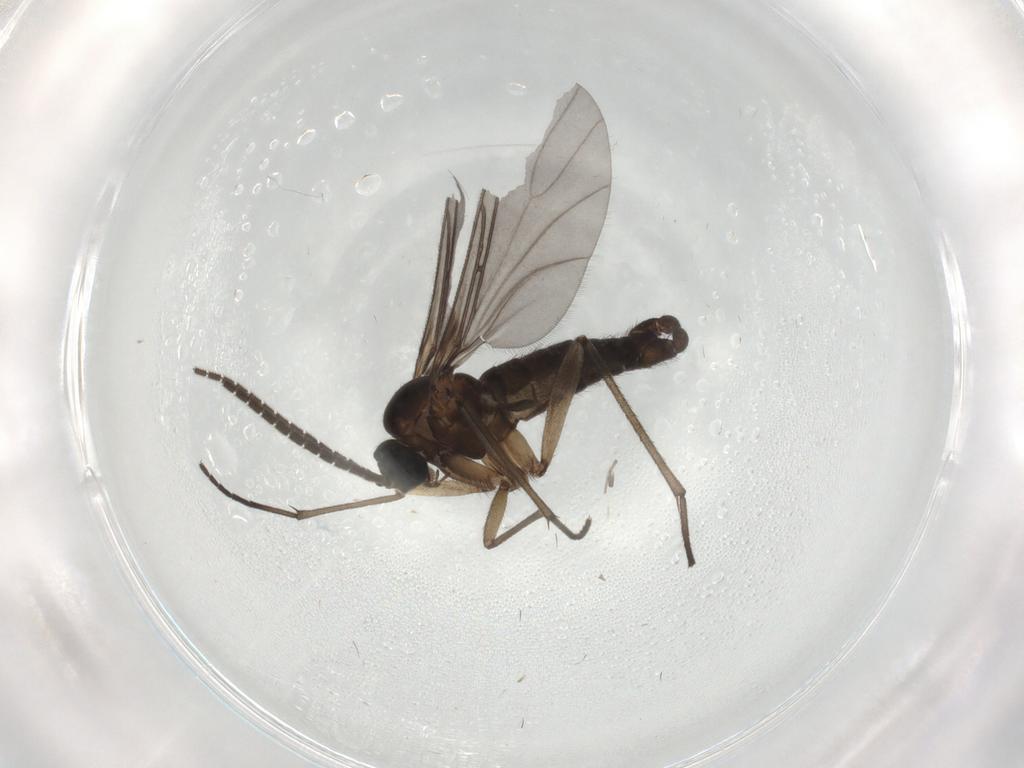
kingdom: Animalia
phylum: Arthropoda
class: Insecta
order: Diptera
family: Sciaridae
